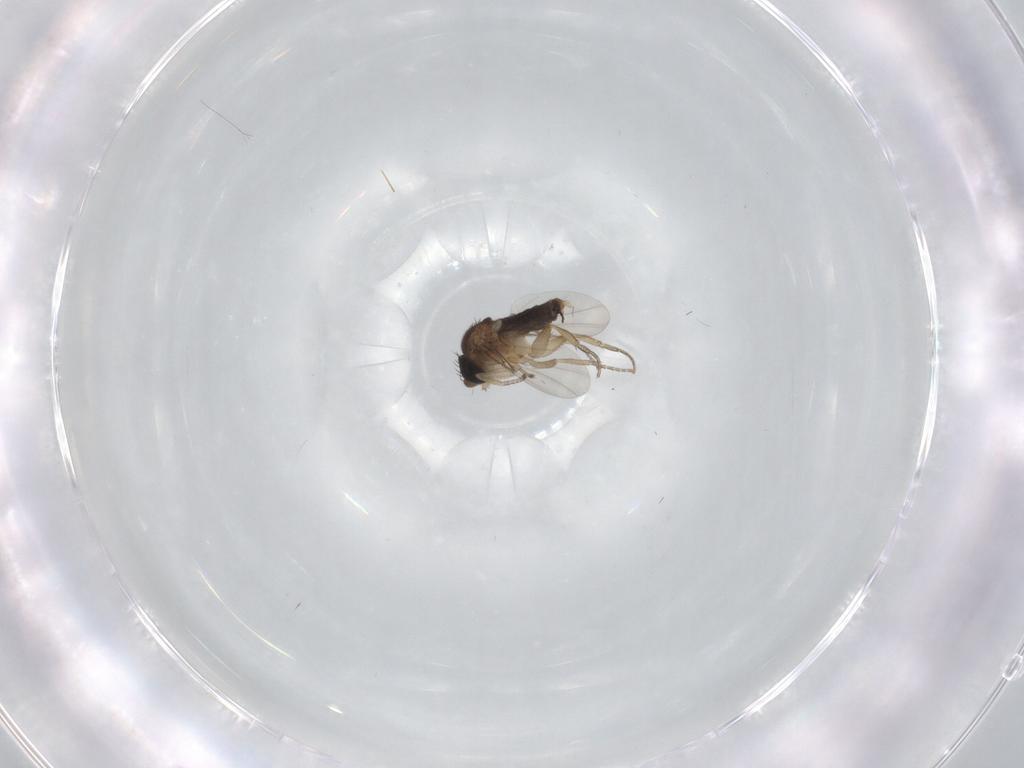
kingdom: Animalia
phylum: Arthropoda
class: Insecta
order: Diptera
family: Phoridae
